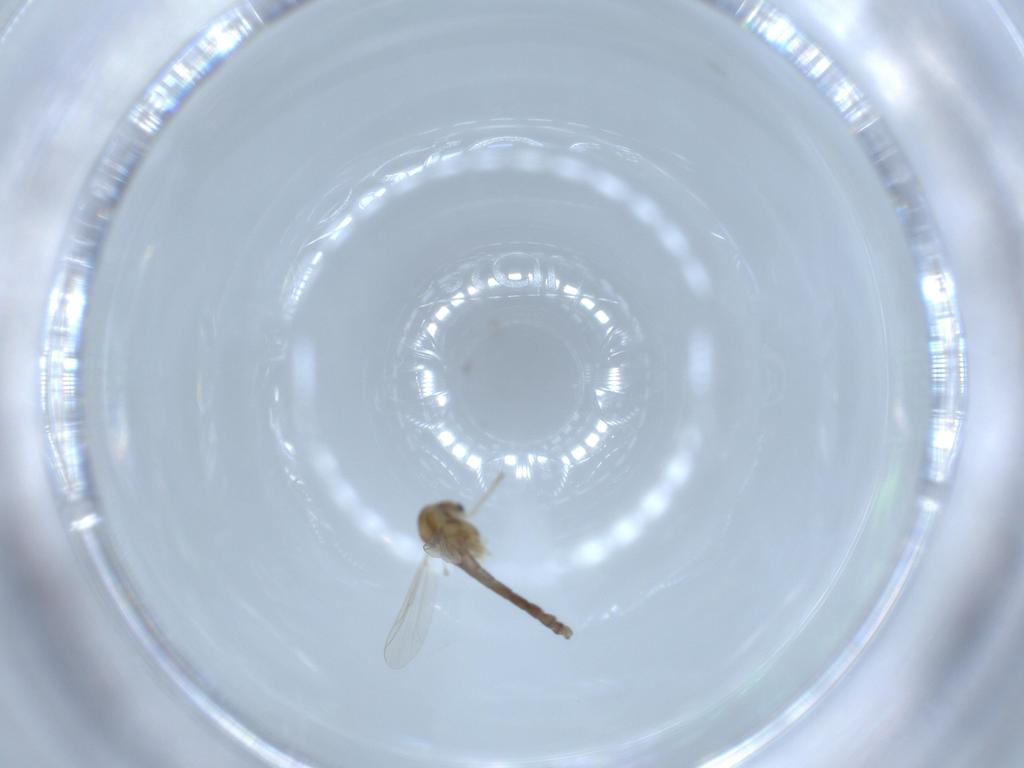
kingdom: Animalia
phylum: Arthropoda
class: Insecta
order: Diptera
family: Chironomidae
